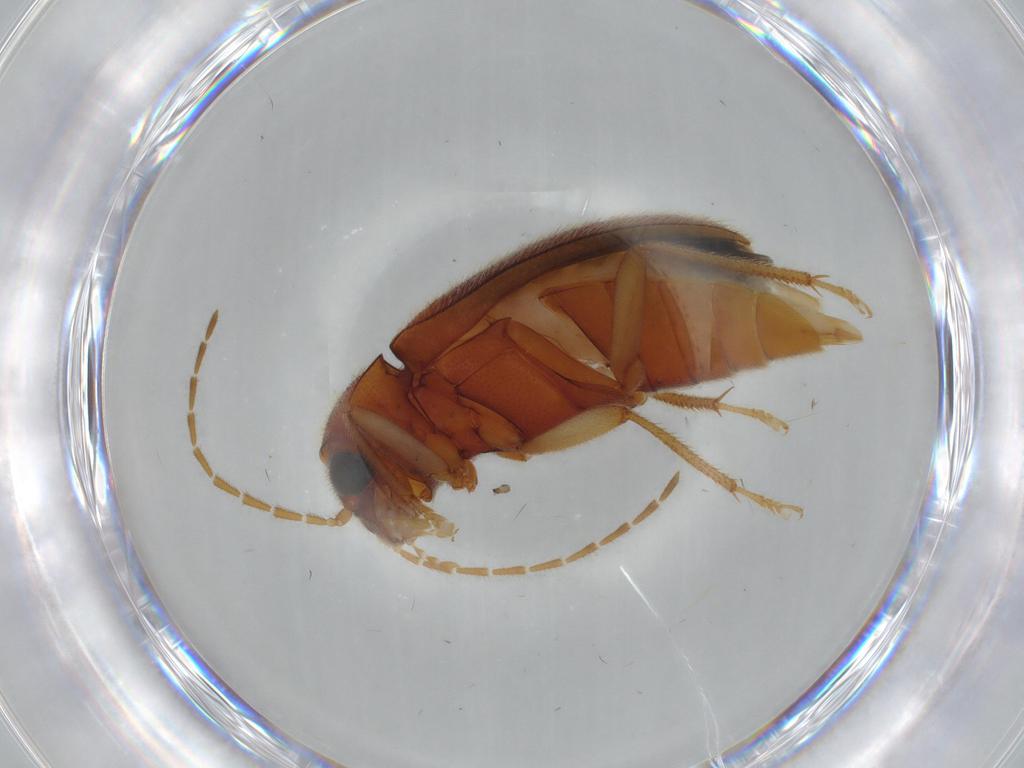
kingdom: Animalia
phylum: Arthropoda
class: Insecta
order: Coleoptera
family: Ptilodactylidae
